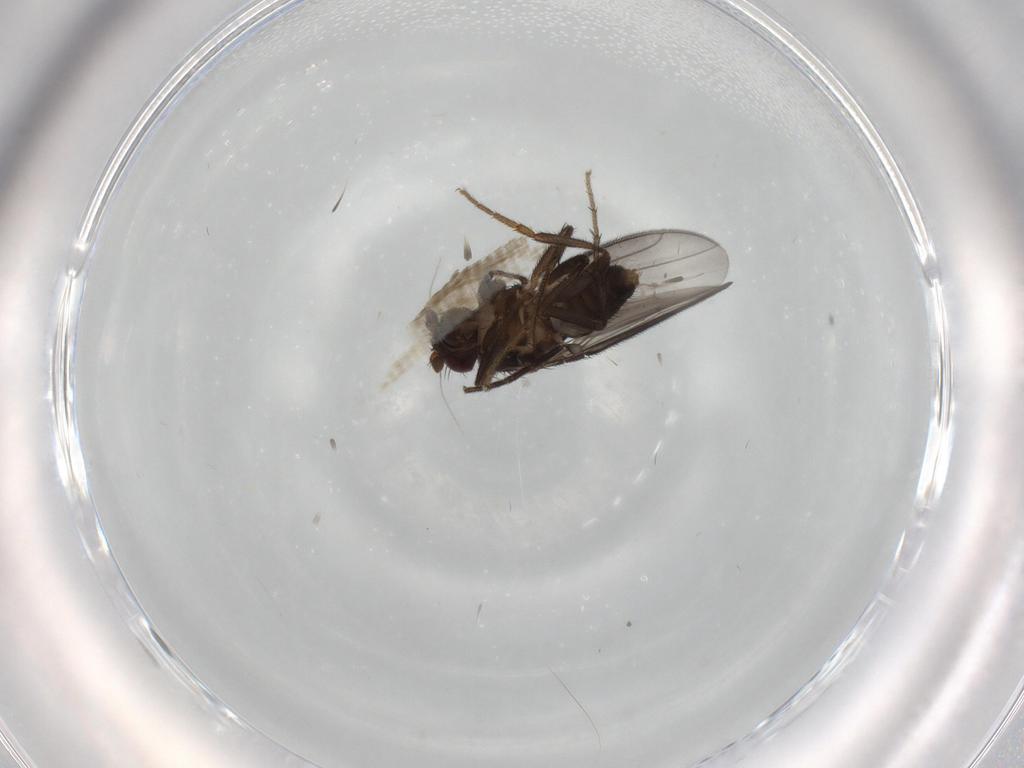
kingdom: Animalia
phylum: Arthropoda
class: Insecta
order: Diptera
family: Sphaeroceridae
